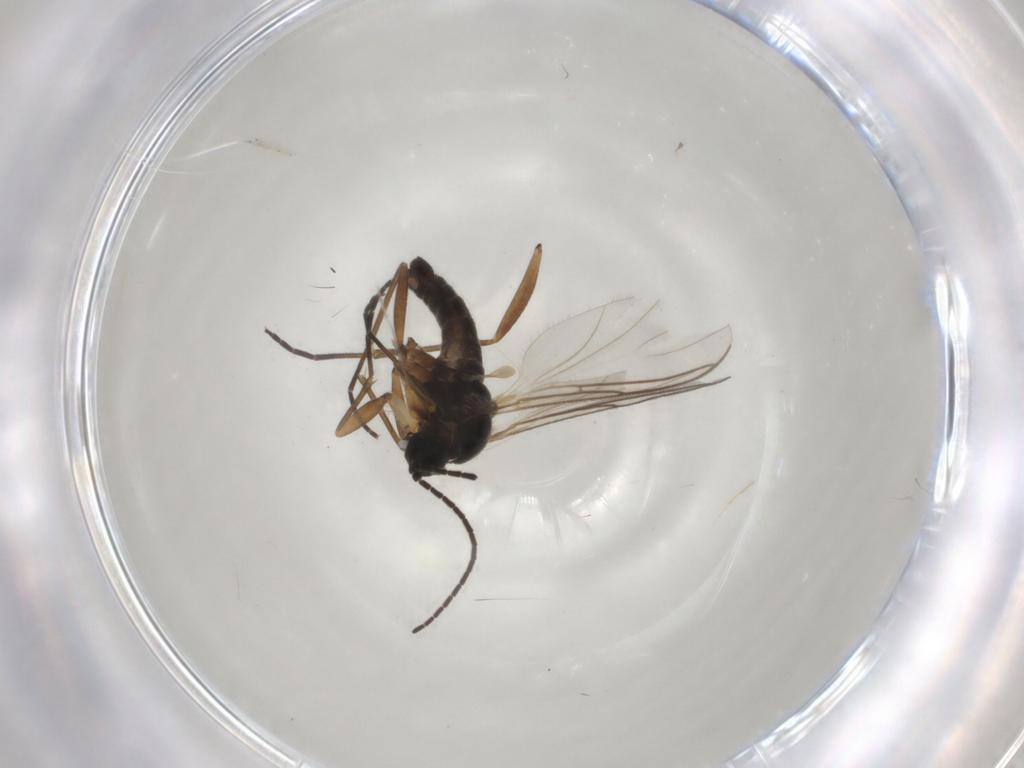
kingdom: Animalia
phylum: Arthropoda
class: Insecta
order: Diptera
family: Sciaridae
